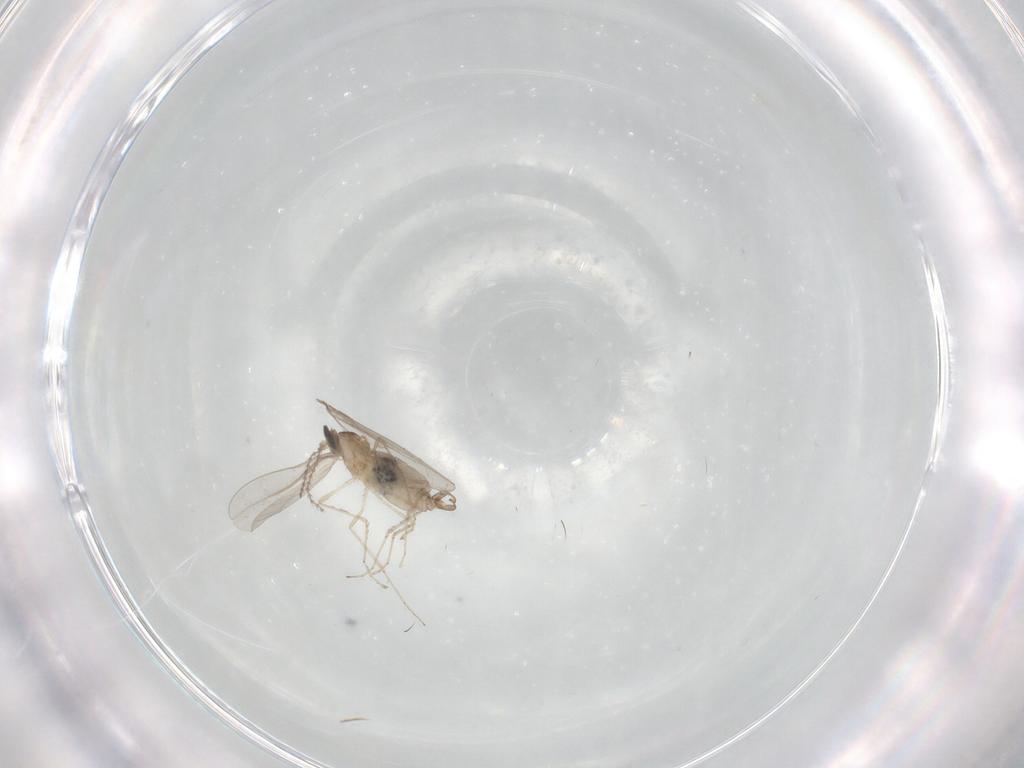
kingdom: Animalia
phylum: Arthropoda
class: Insecta
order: Diptera
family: Cecidomyiidae
